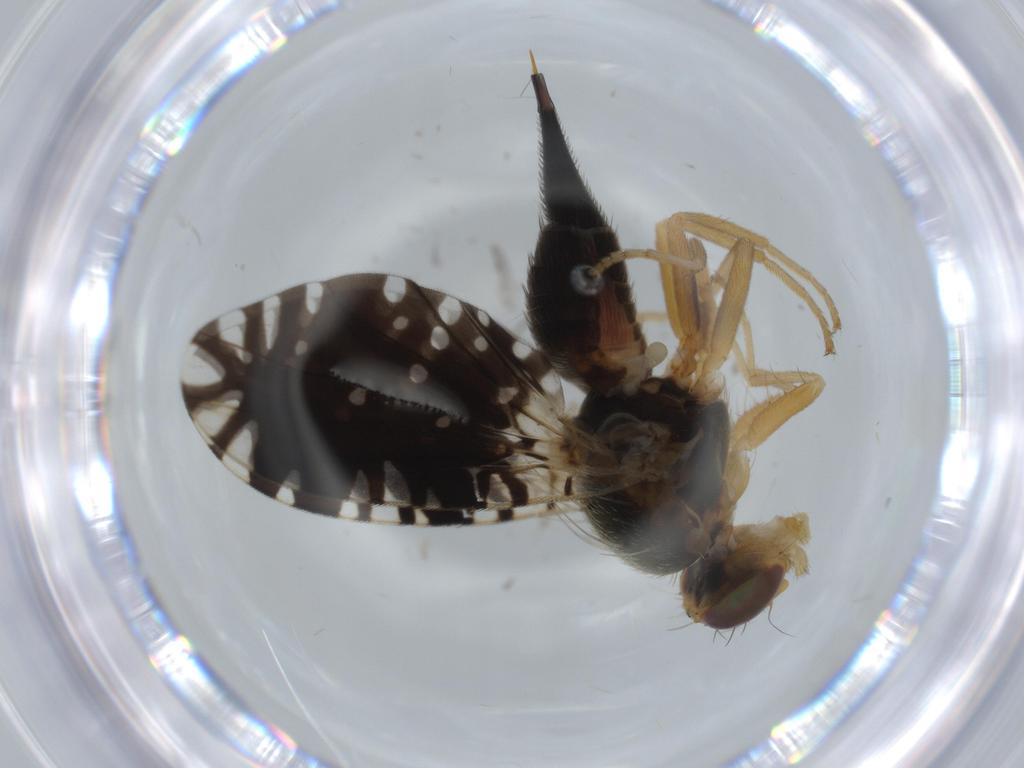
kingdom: Animalia
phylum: Arthropoda
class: Insecta
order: Diptera
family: Tephritidae
